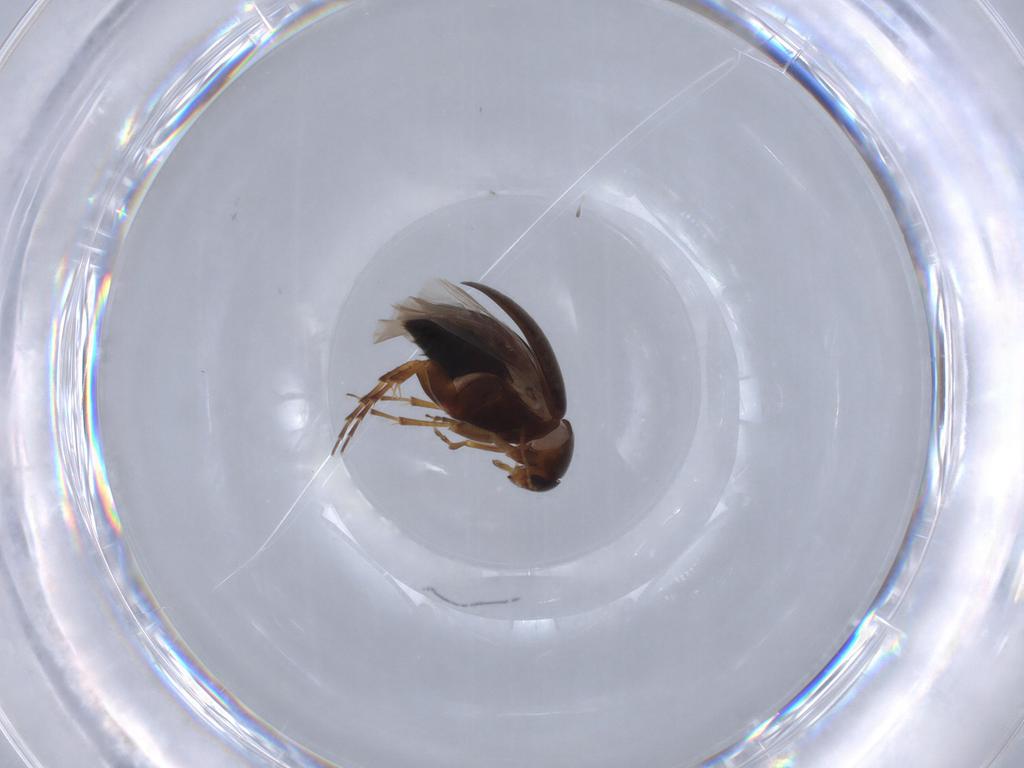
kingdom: Animalia
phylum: Arthropoda
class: Insecta
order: Coleoptera
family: Scraptiidae
